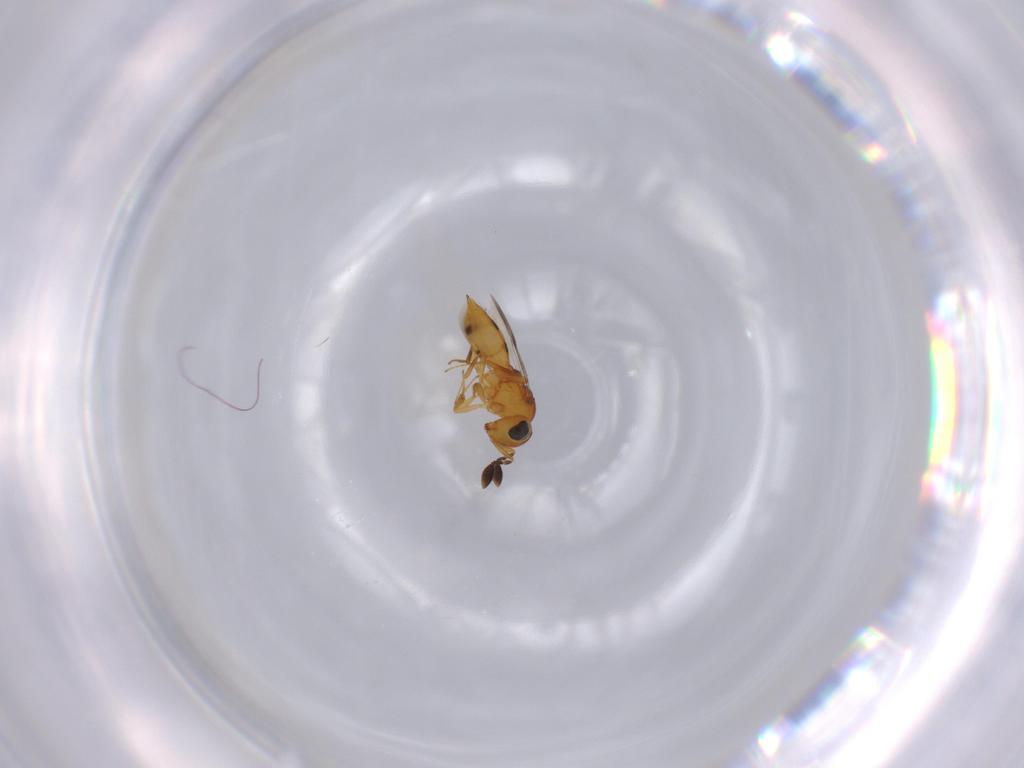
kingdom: Animalia
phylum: Arthropoda
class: Insecta
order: Hymenoptera
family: Scelionidae
